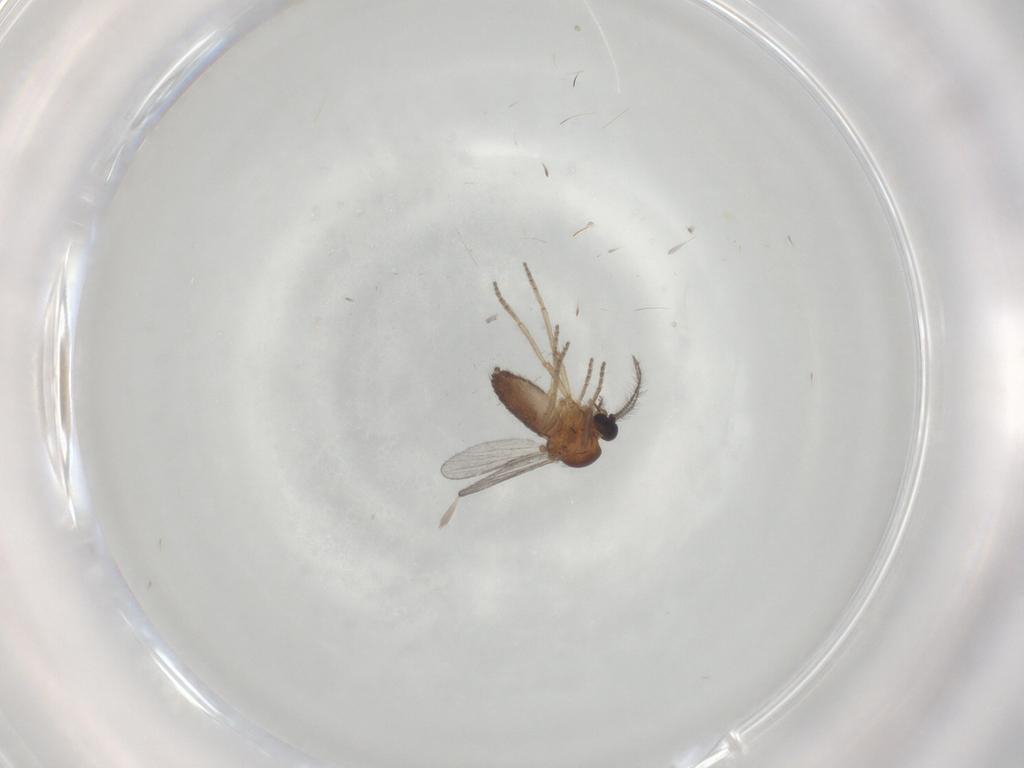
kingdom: Animalia
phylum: Arthropoda
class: Insecta
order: Diptera
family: Ceratopogonidae
